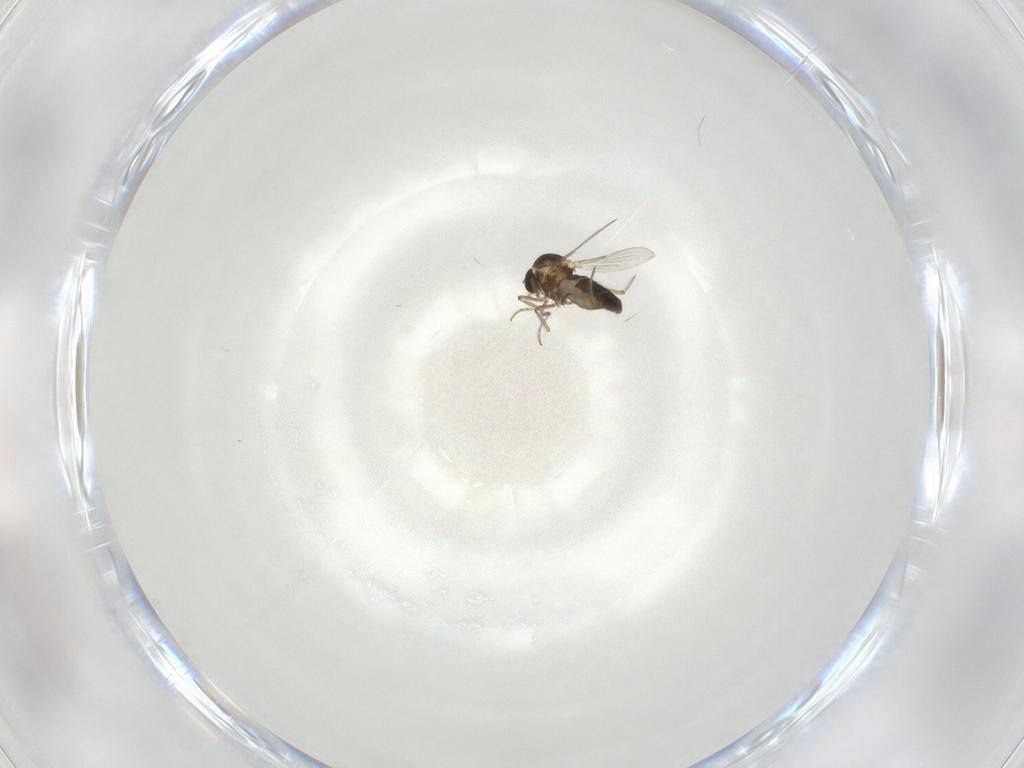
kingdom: Animalia
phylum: Arthropoda
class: Insecta
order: Diptera
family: Ceratopogonidae
